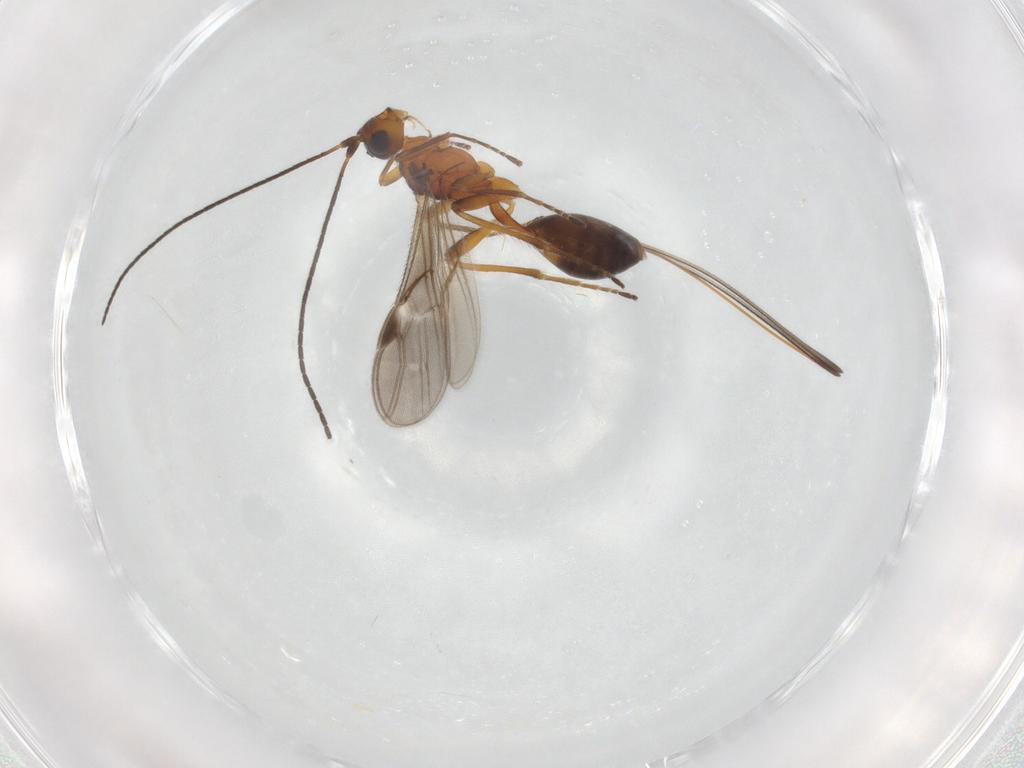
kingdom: Animalia
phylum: Arthropoda
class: Insecta
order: Hymenoptera
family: Braconidae
